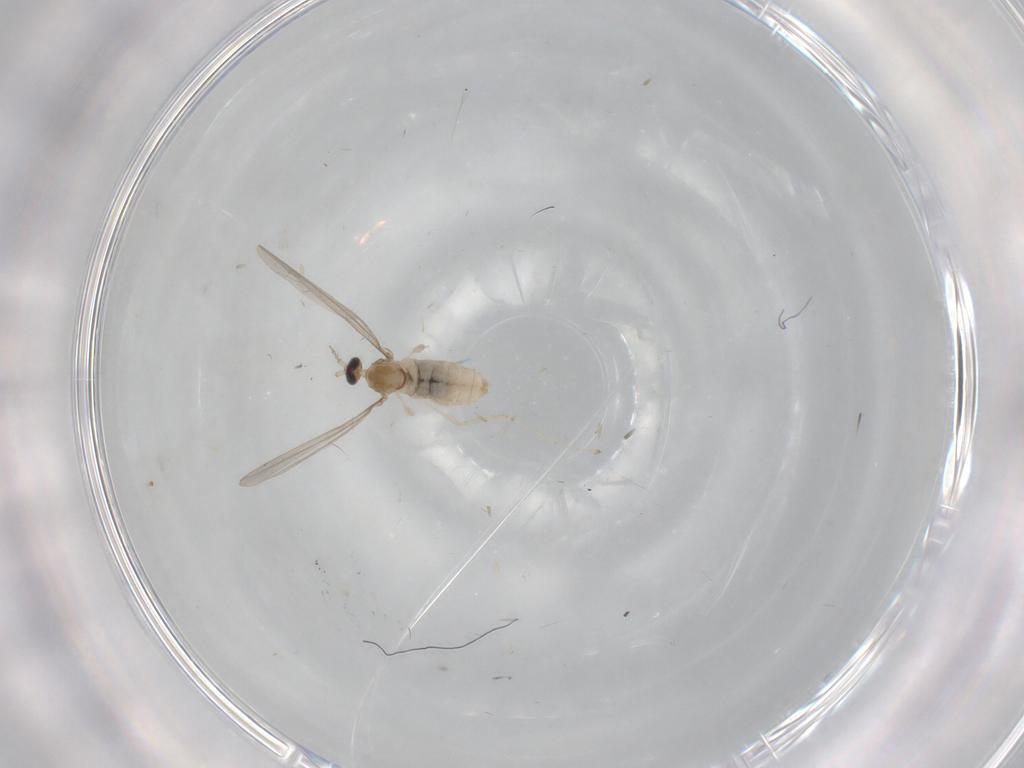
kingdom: Animalia
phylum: Arthropoda
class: Insecta
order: Diptera
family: Cecidomyiidae
